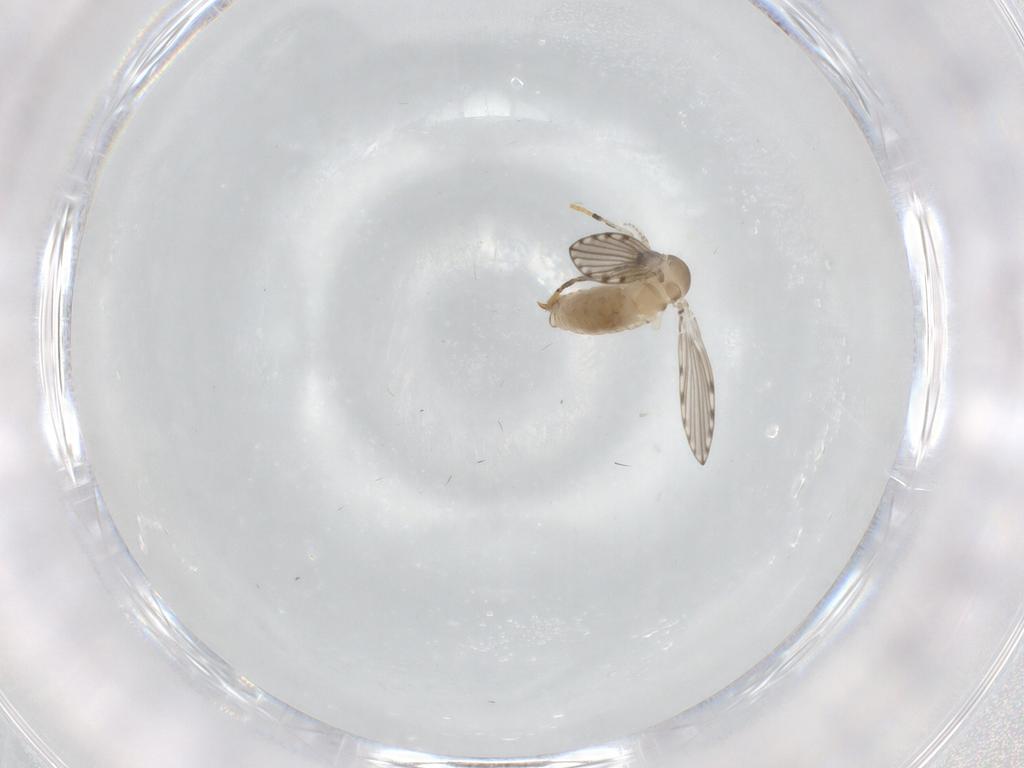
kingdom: Animalia
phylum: Arthropoda
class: Insecta
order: Diptera
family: Psychodidae
